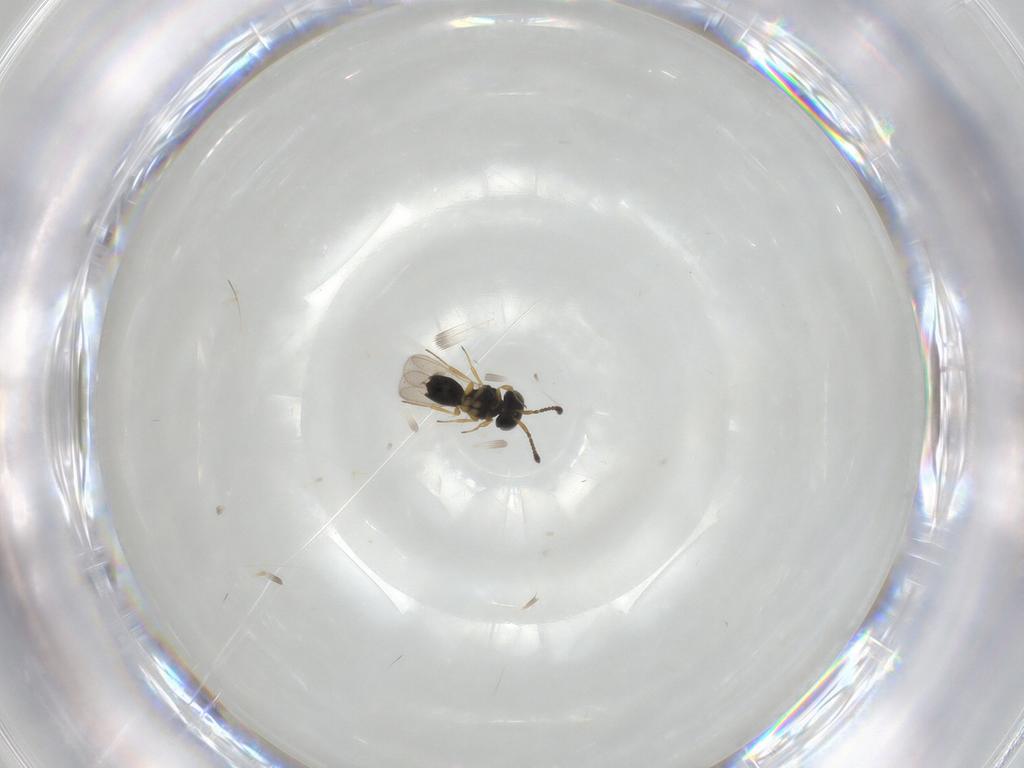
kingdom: Animalia
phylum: Arthropoda
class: Insecta
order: Hymenoptera
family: Scelionidae
